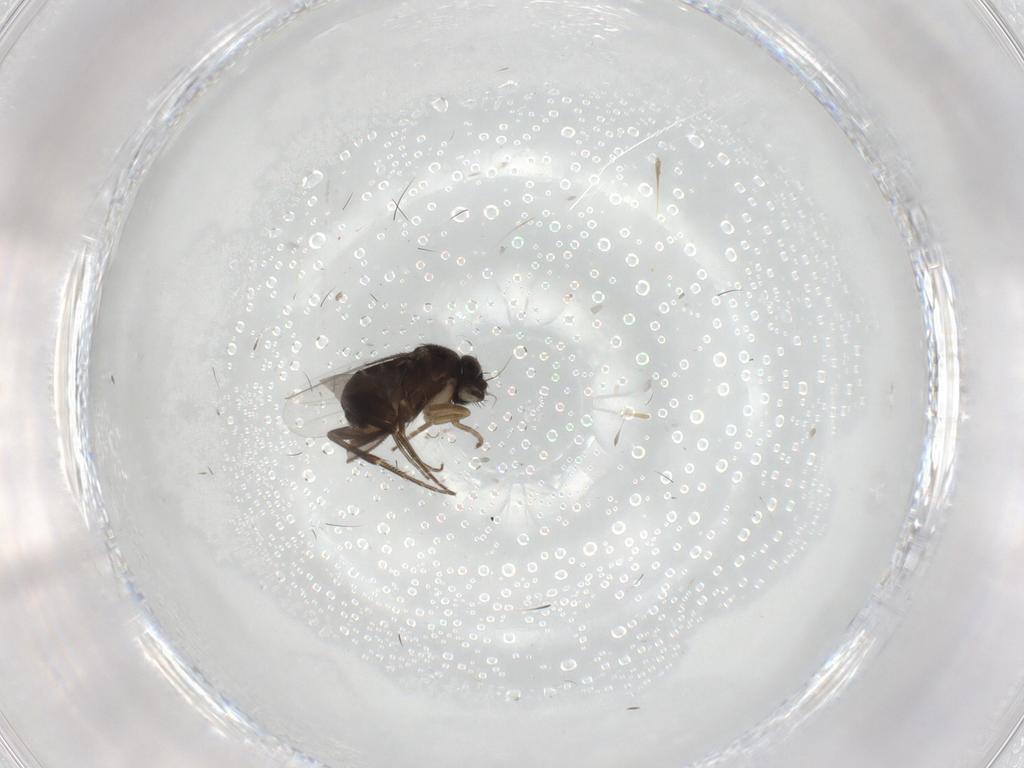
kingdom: Animalia
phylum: Arthropoda
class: Insecta
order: Diptera
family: Phoridae
